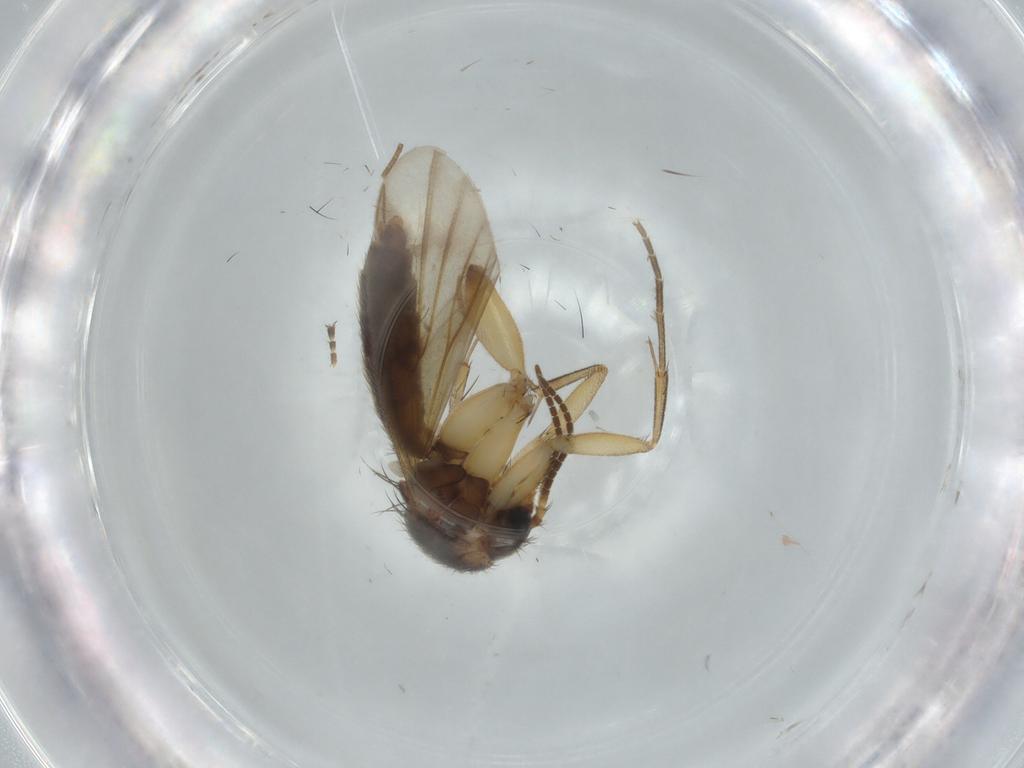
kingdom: Animalia
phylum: Arthropoda
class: Insecta
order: Diptera
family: Mycetophilidae
